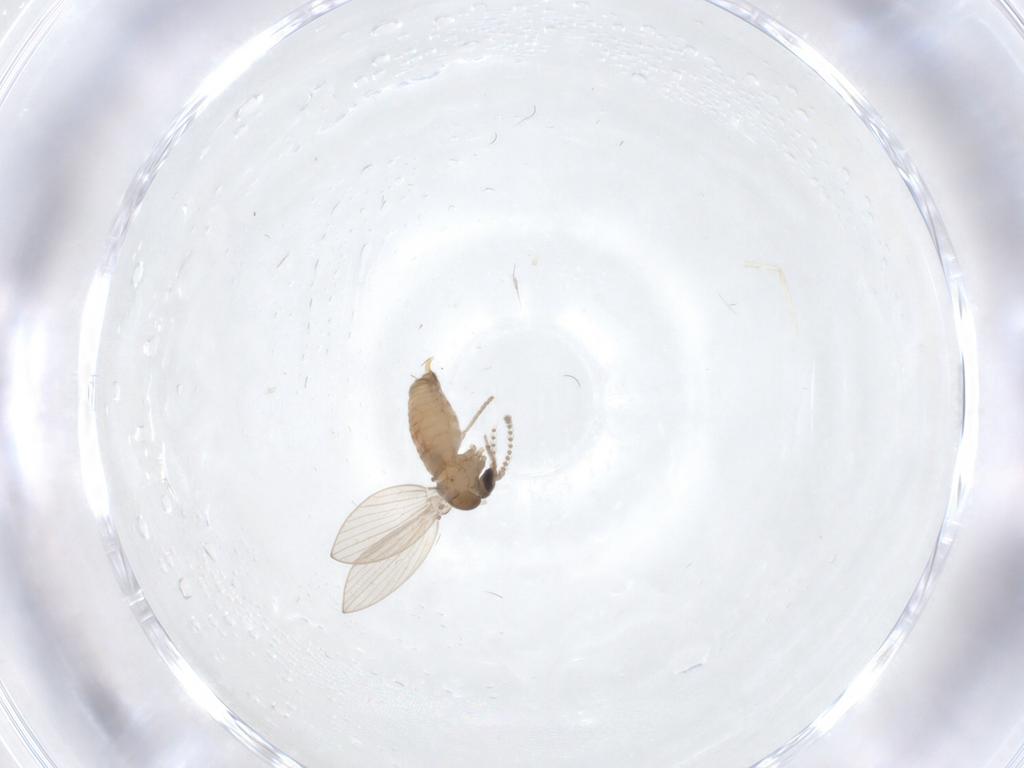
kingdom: Animalia
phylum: Arthropoda
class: Insecta
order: Diptera
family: Psychodidae
